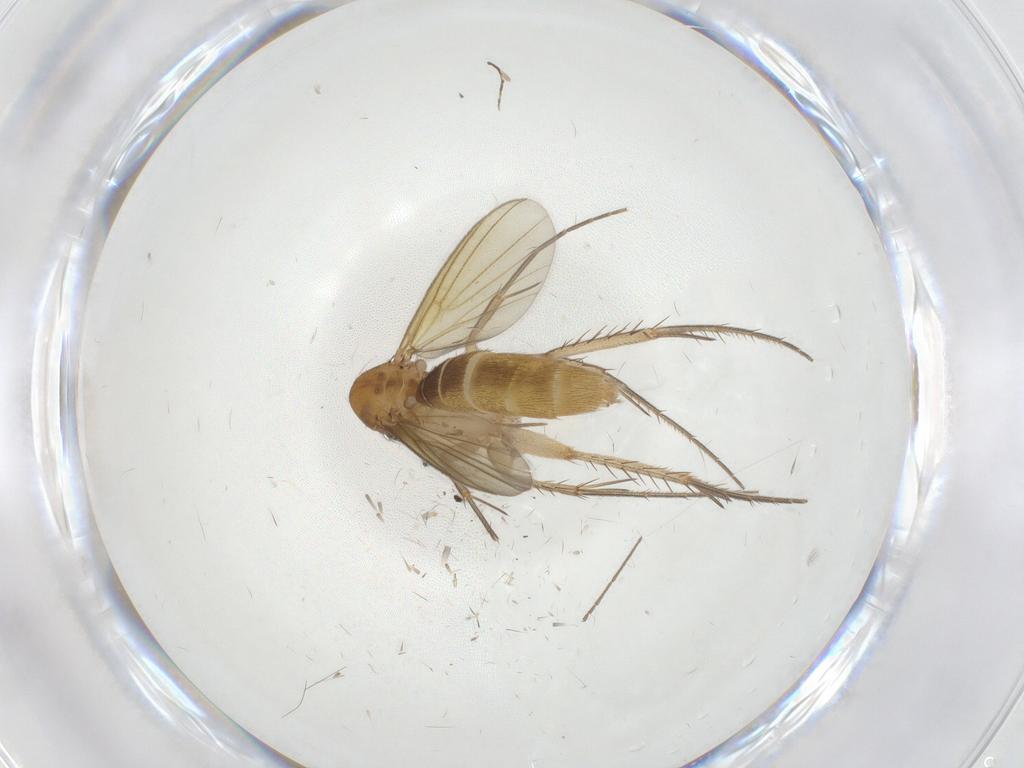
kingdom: Animalia
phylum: Arthropoda
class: Insecta
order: Diptera
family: Mycetophilidae
